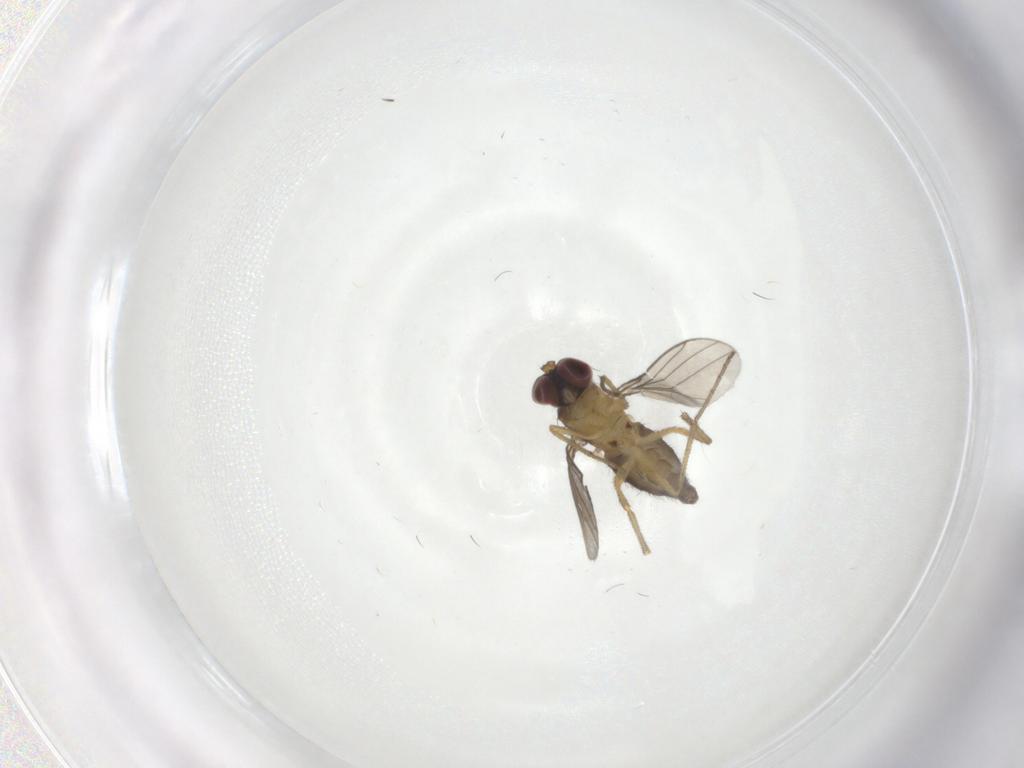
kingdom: Animalia
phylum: Arthropoda
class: Insecta
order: Diptera
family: Dolichopodidae
